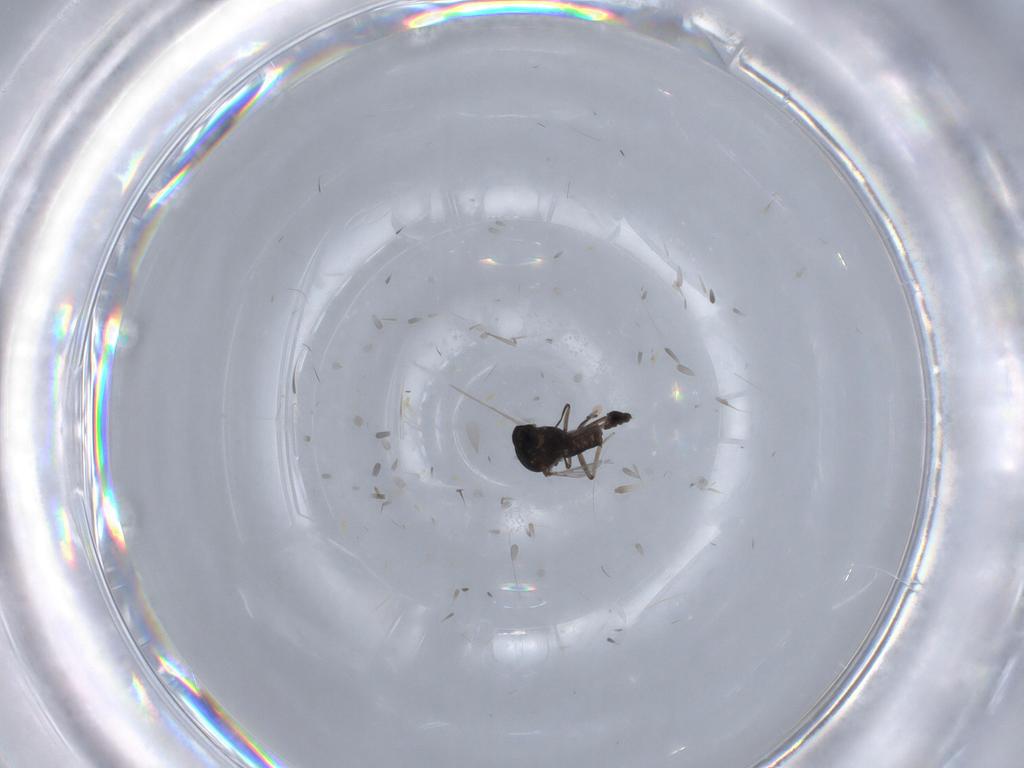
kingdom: Animalia
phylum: Arthropoda
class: Insecta
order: Diptera
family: Ceratopogonidae
